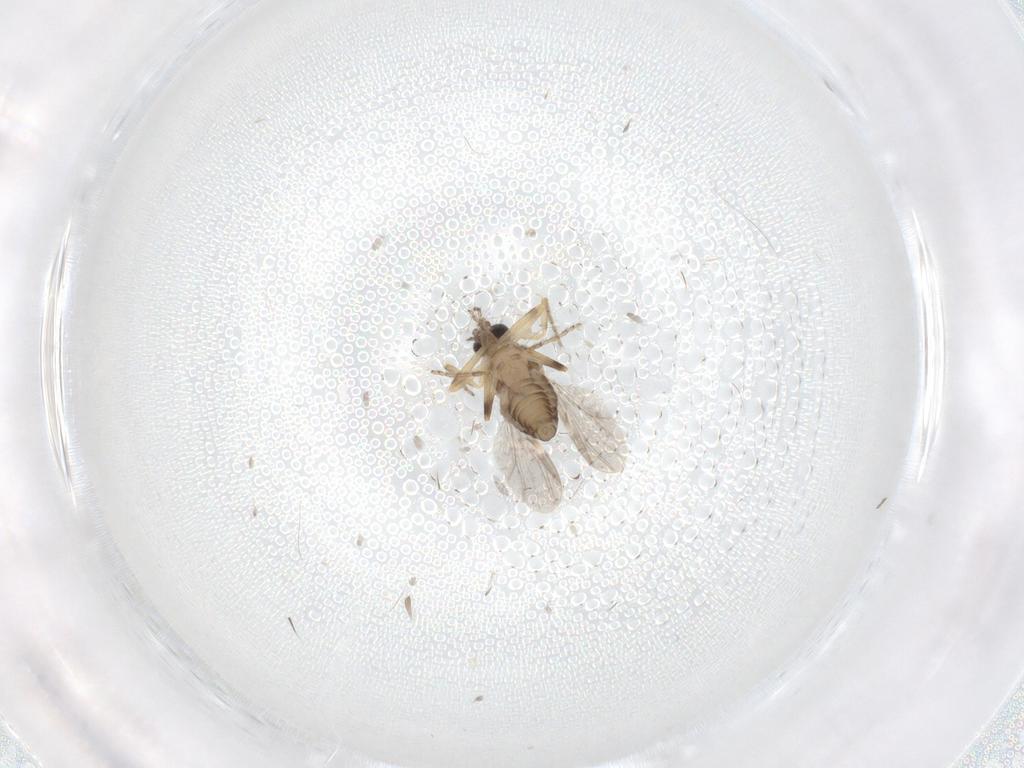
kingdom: Animalia
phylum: Arthropoda
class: Insecta
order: Diptera
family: Ceratopogonidae
